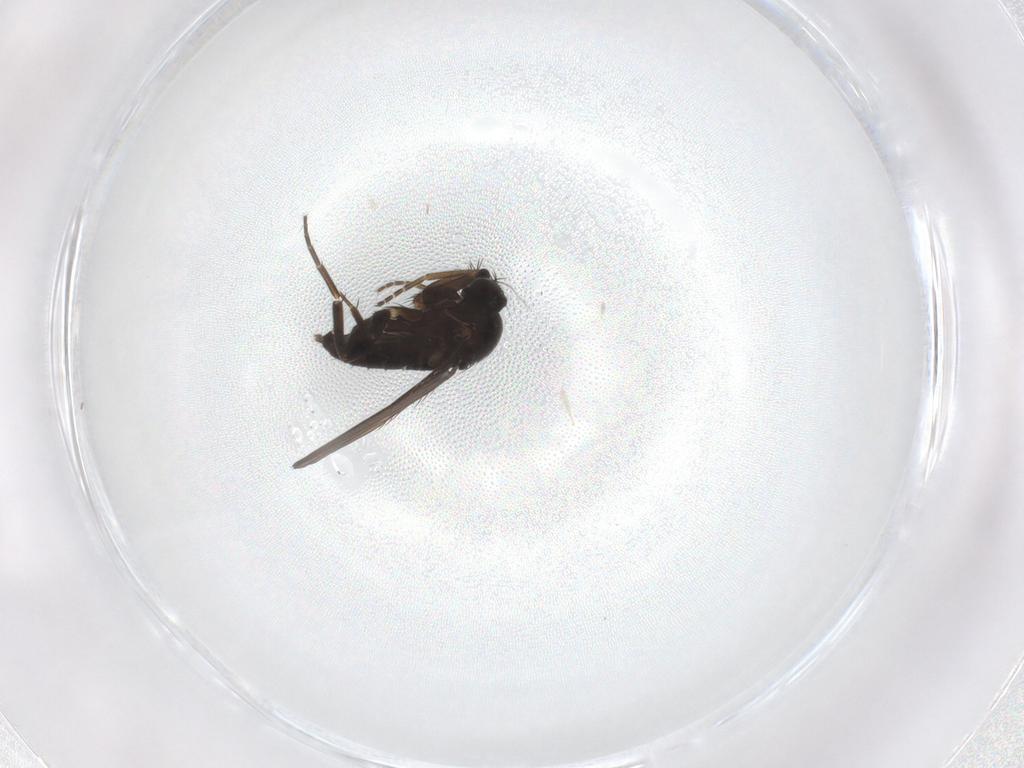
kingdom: Animalia
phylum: Arthropoda
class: Insecta
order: Diptera
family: Phoridae
